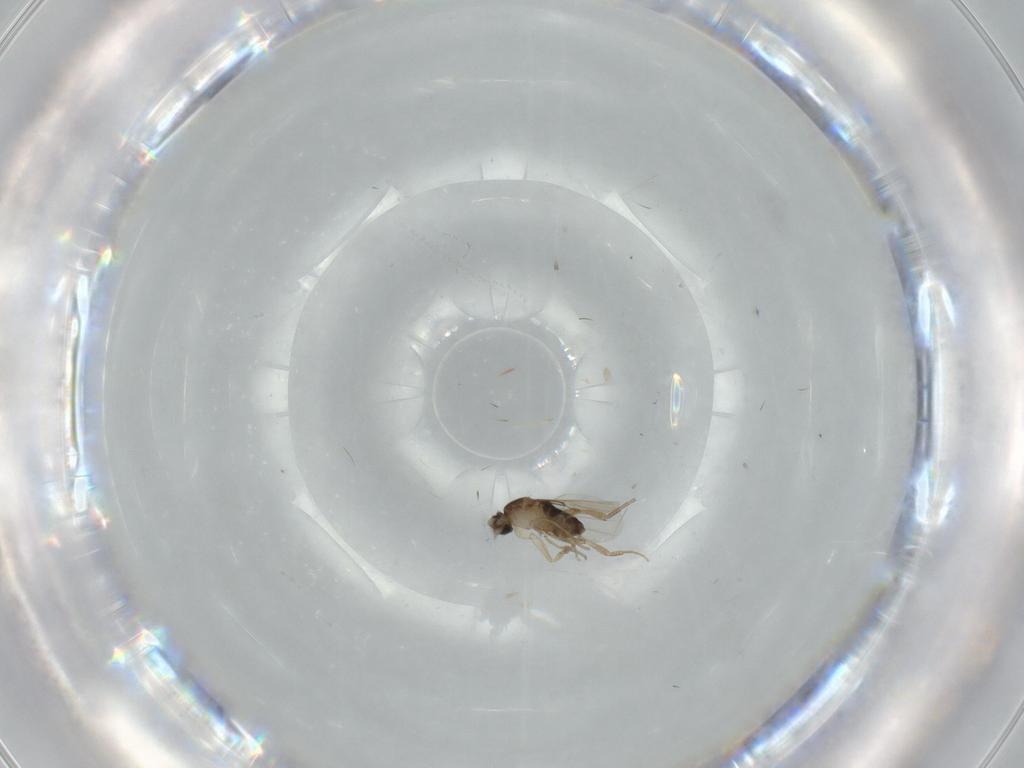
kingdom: Animalia
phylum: Arthropoda
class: Insecta
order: Diptera
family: Phoridae
